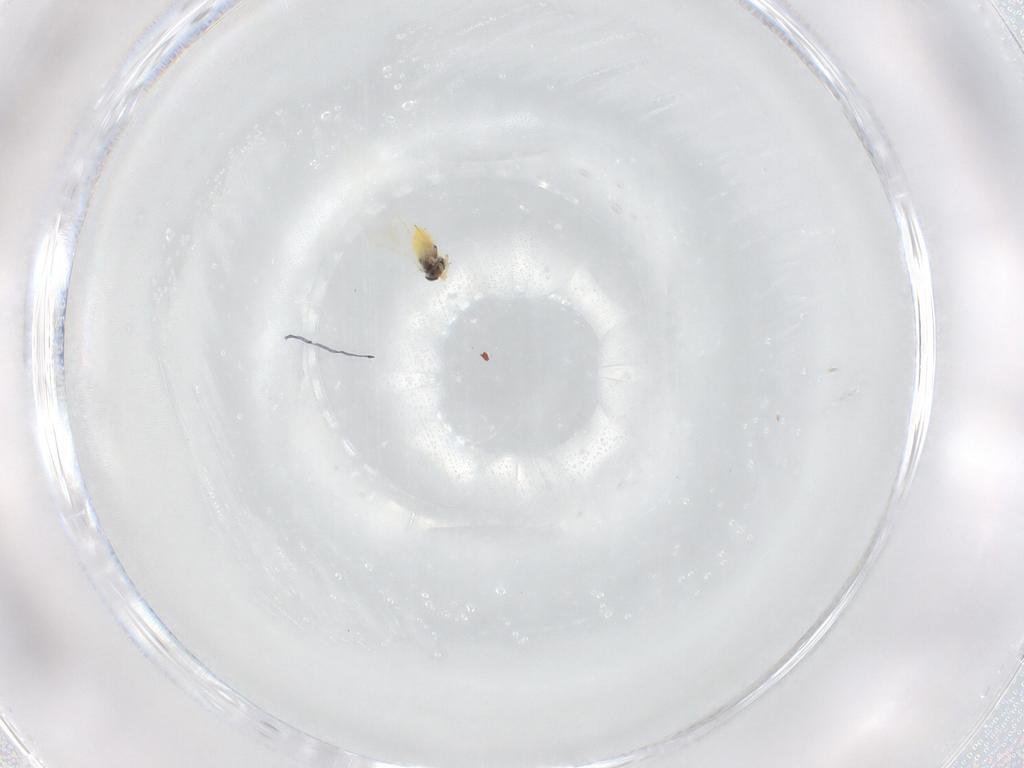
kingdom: Animalia
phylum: Arthropoda
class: Insecta
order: Hymenoptera
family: Aphelinidae
